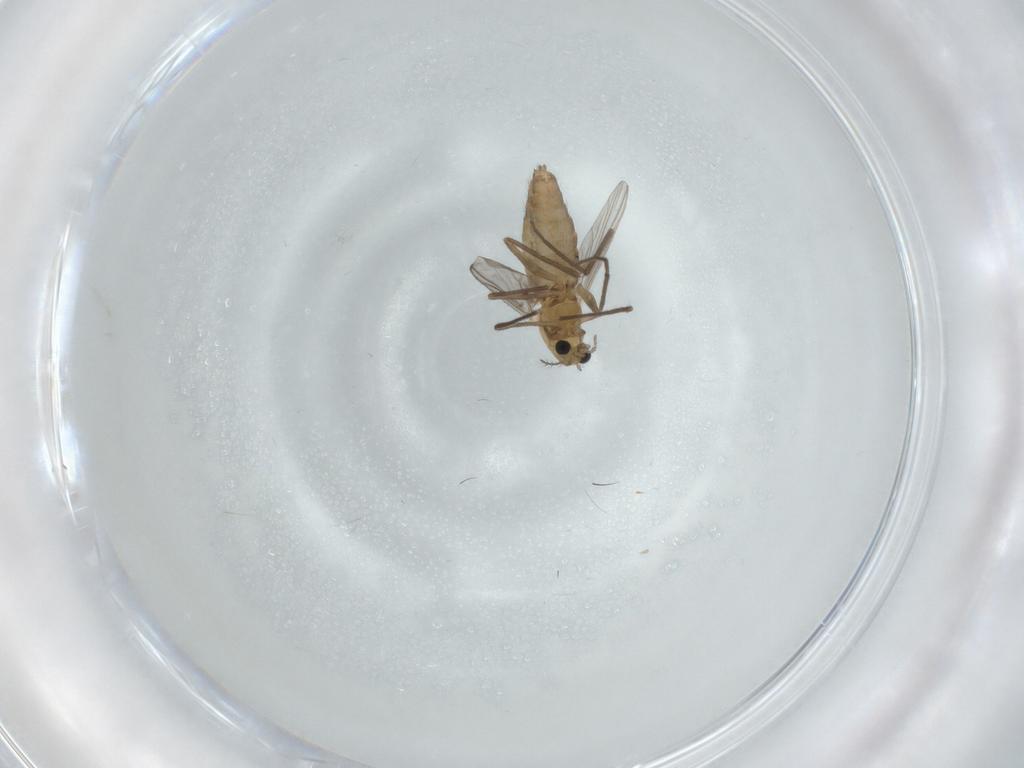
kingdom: Animalia
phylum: Arthropoda
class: Insecta
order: Diptera
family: Chironomidae
